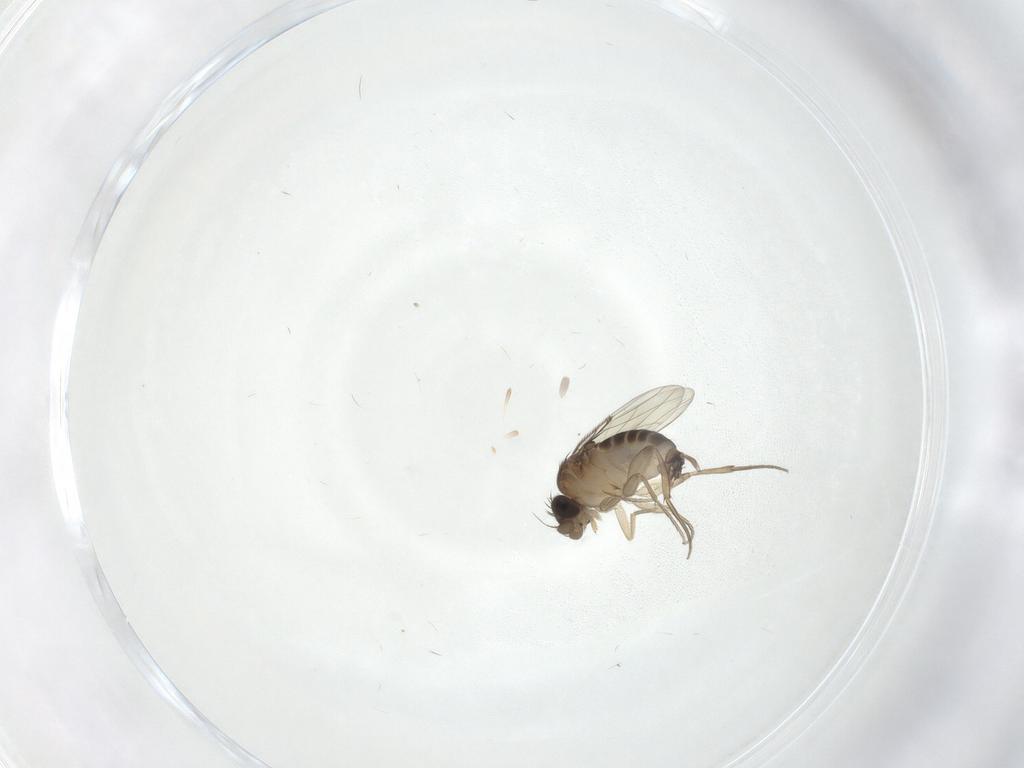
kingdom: Animalia
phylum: Arthropoda
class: Insecta
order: Diptera
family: Phoridae
